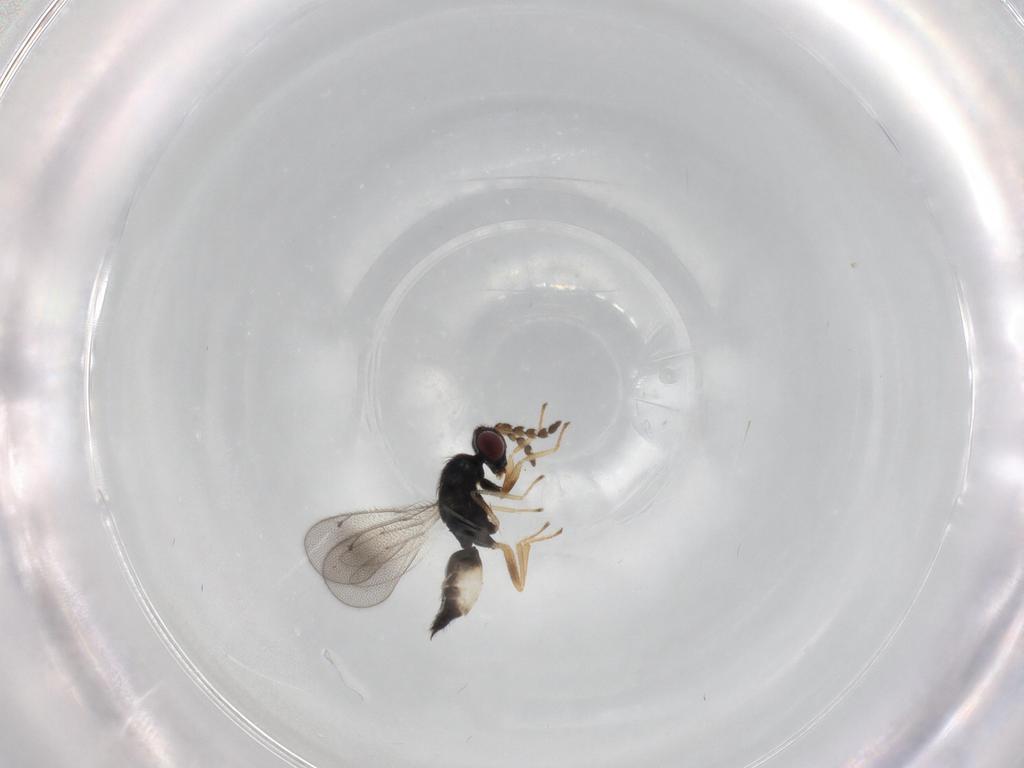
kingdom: Animalia
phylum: Arthropoda
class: Insecta
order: Hymenoptera
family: Eulophidae
